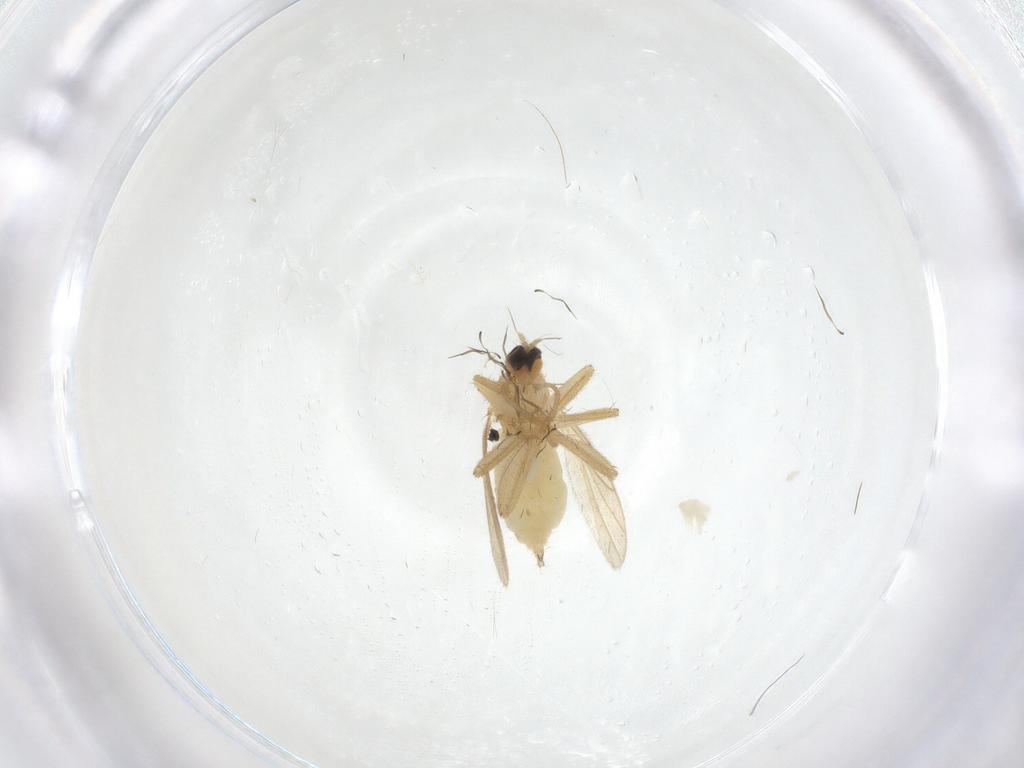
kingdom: Animalia
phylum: Arthropoda
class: Insecta
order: Diptera
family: Hybotidae
